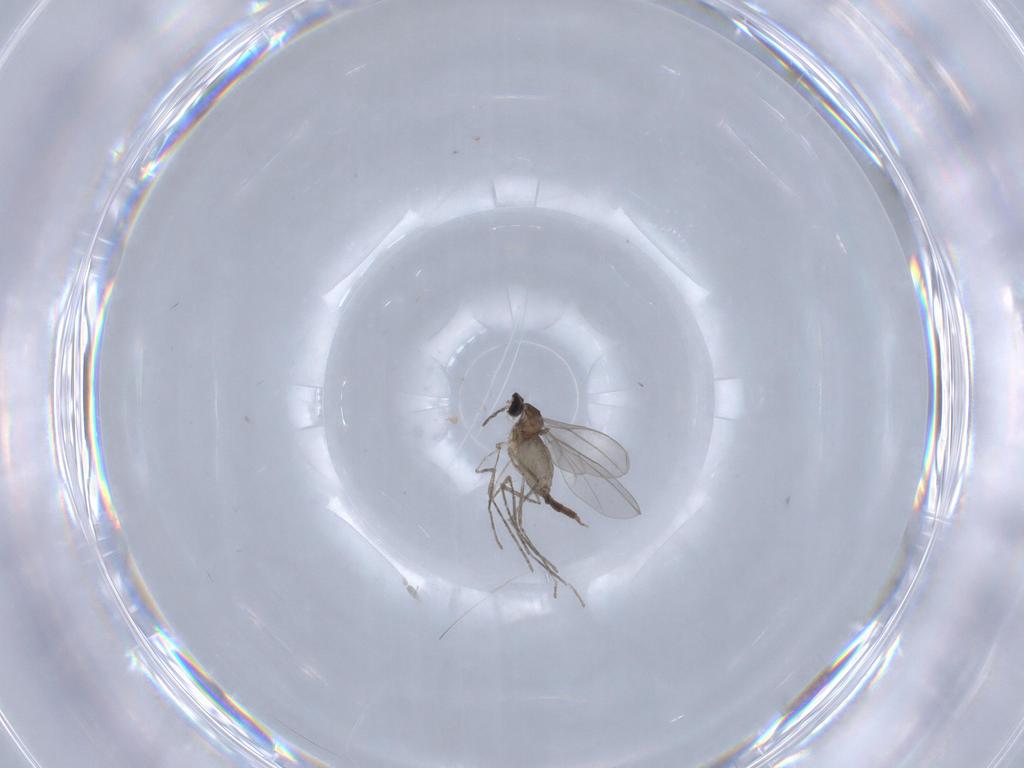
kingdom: Animalia
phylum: Arthropoda
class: Insecta
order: Diptera
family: Cecidomyiidae
